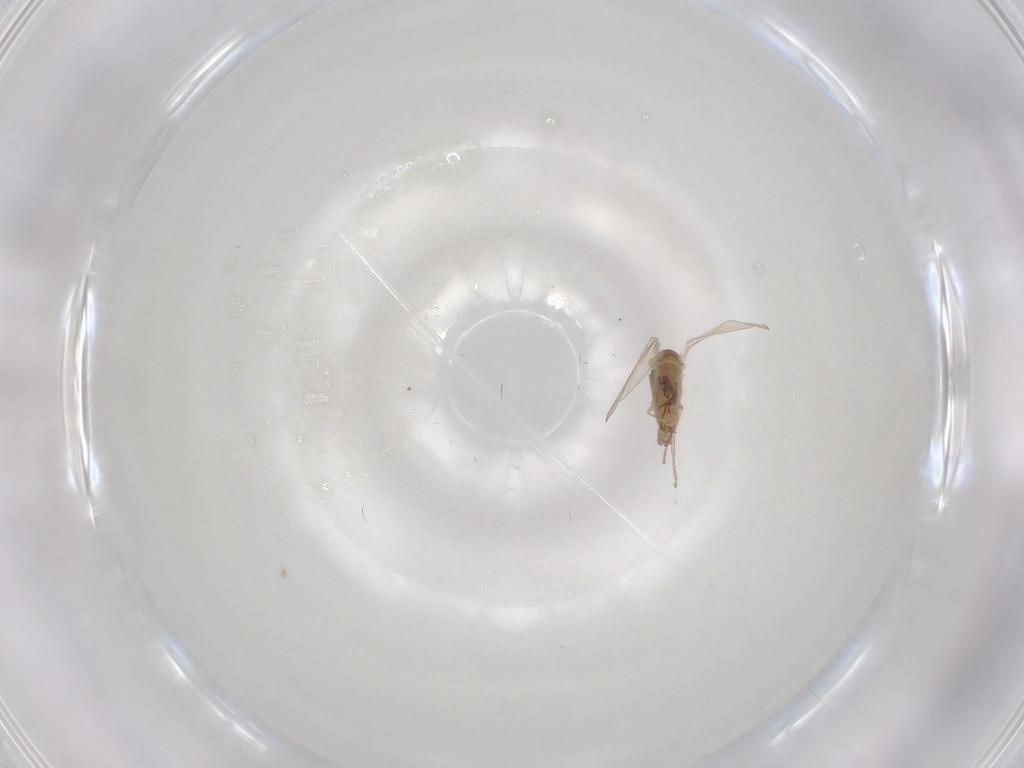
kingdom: Animalia
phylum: Arthropoda
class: Insecta
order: Diptera
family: Psychodidae
